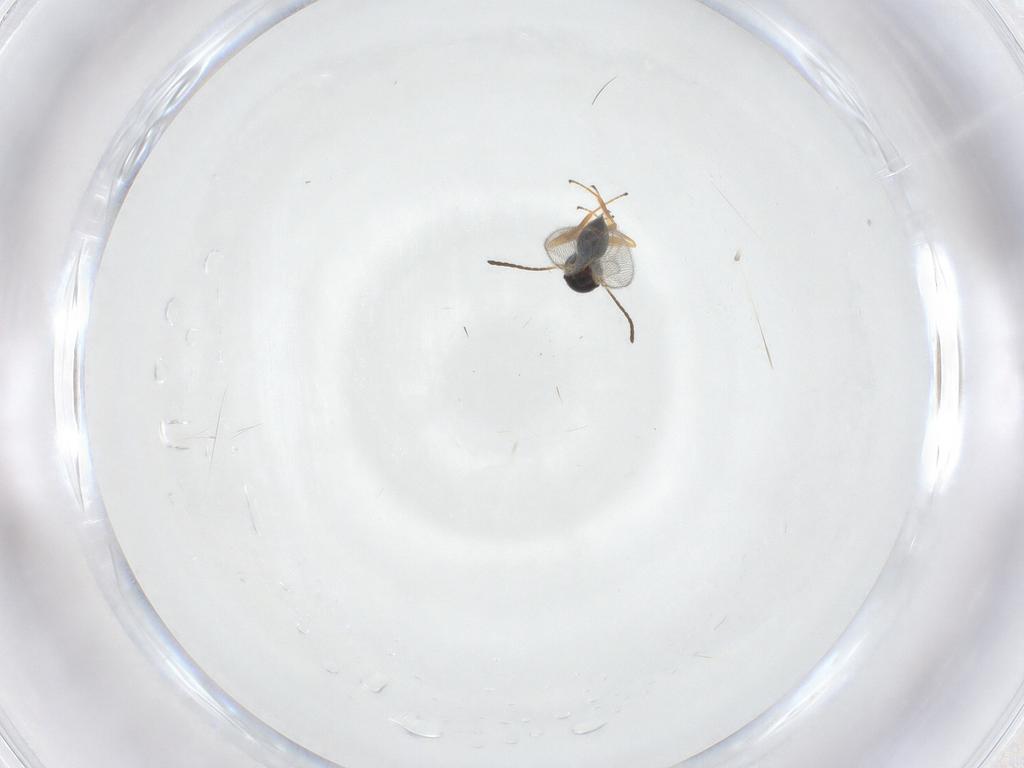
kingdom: Animalia
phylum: Arthropoda
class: Insecta
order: Hymenoptera
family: Figitidae
